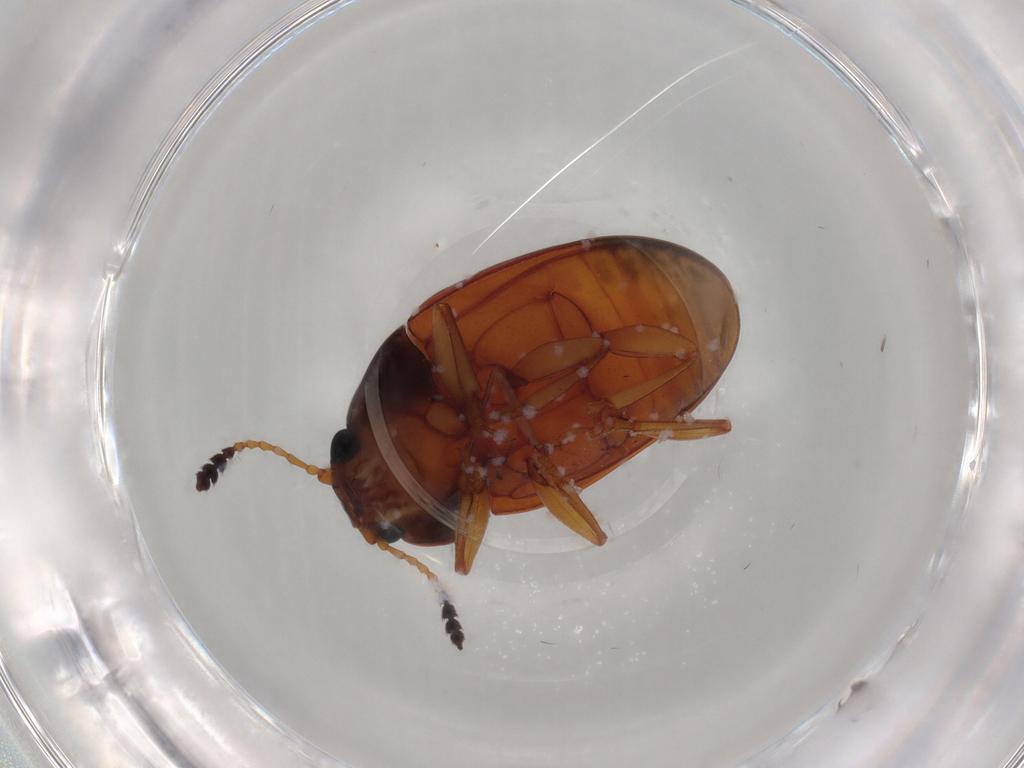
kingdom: Animalia
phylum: Arthropoda
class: Insecta
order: Coleoptera
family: Erotylidae
